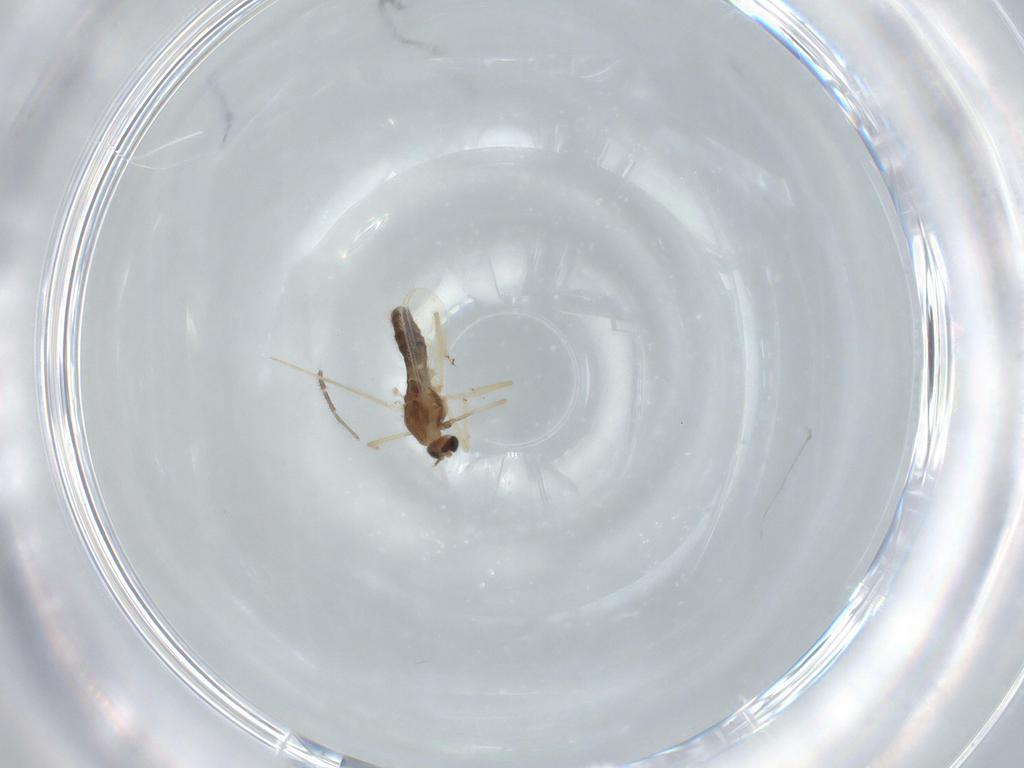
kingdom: Animalia
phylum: Arthropoda
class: Insecta
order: Diptera
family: Chironomidae
